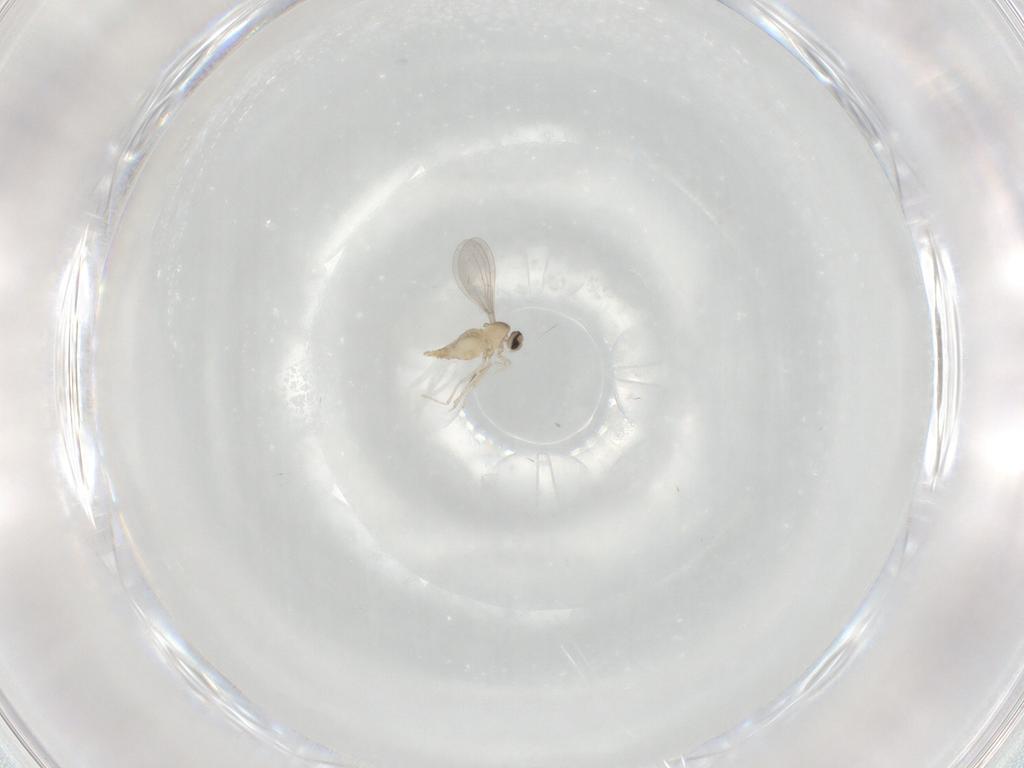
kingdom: Animalia
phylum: Arthropoda
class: Insecta
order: Diptera
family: Cecidomyiidae
